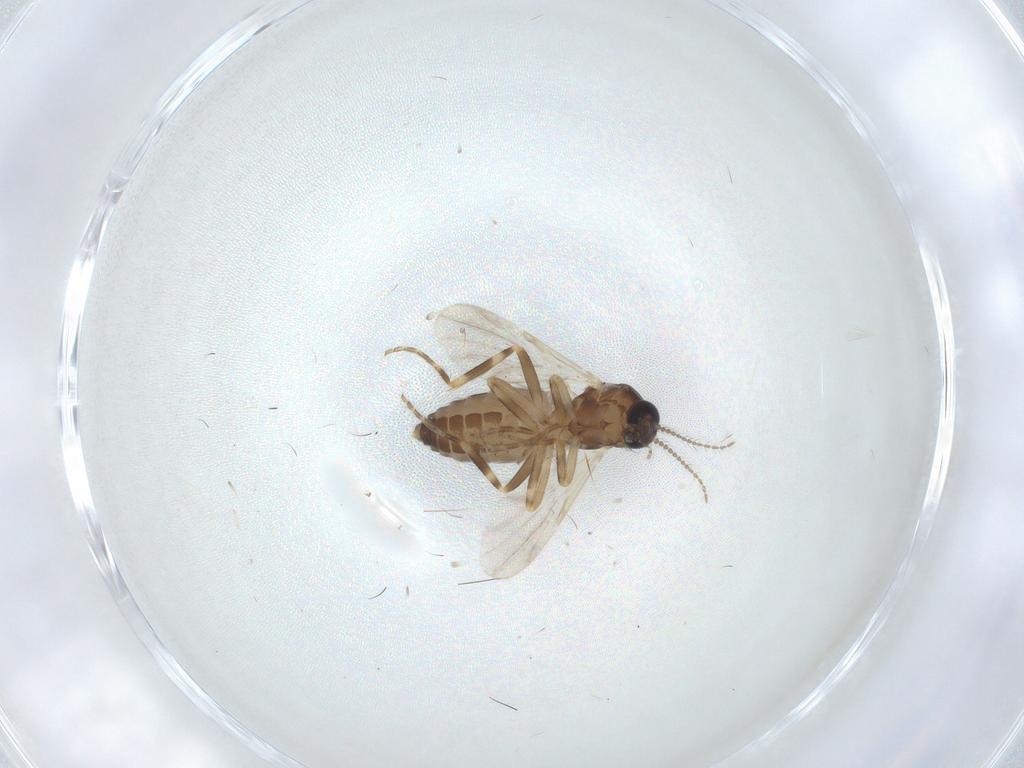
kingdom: Animalia
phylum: Arthropoda
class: Insecta
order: Diptera
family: Ceratopogonidae
